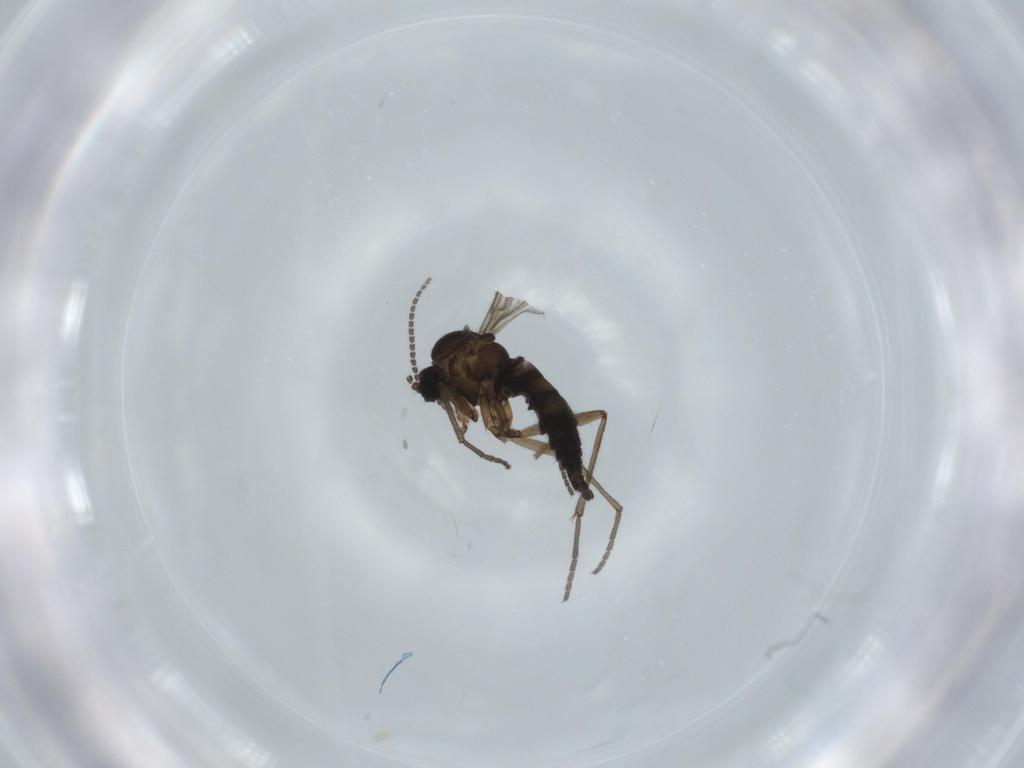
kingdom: Animalia
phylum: Arthropoda
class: Insecta
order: Diptera
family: Sciaridae
